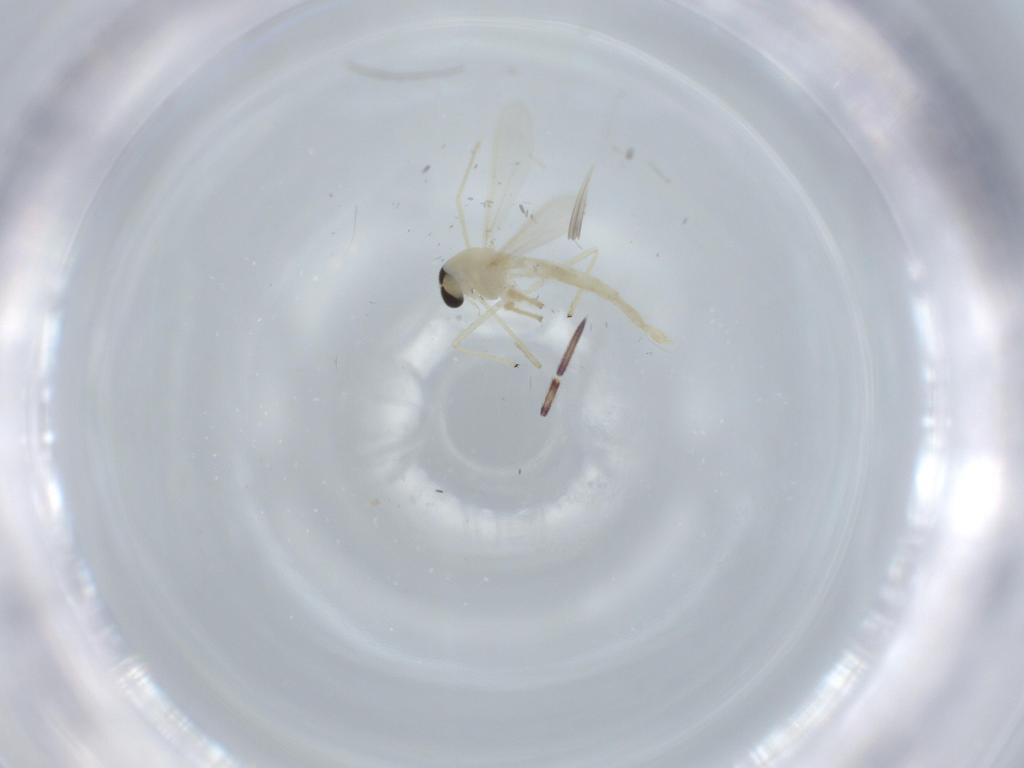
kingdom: Animalia
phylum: Arthropoda
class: Insecta
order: Diptera
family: Chironomidae
